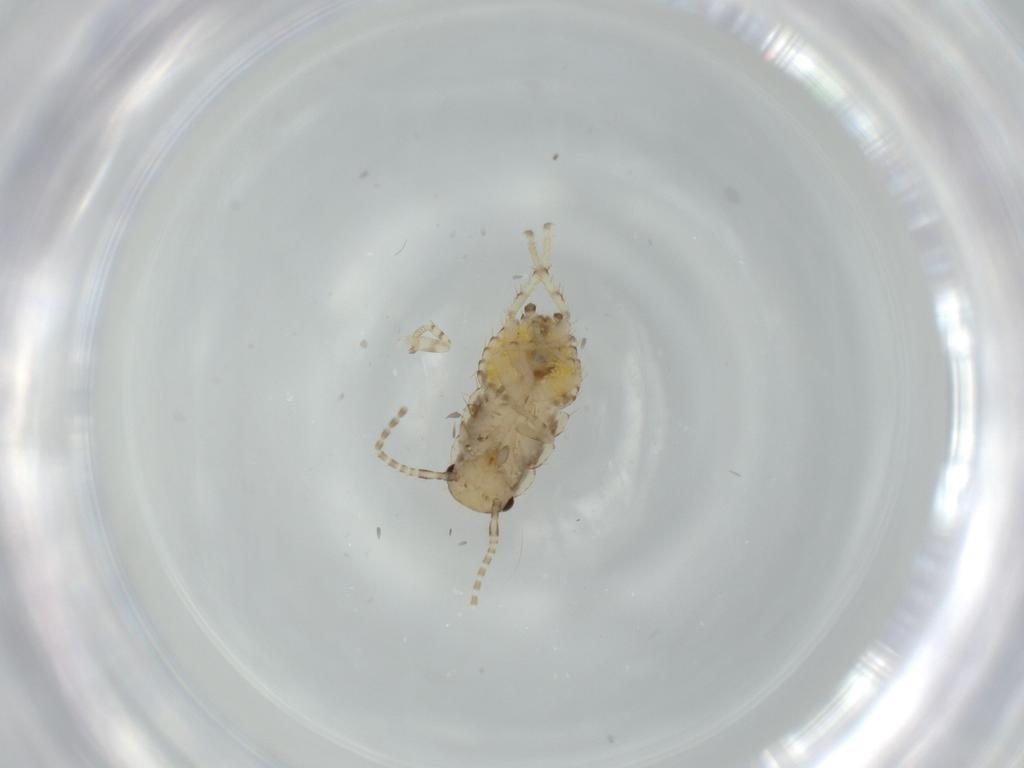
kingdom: Animalia
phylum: Arthropoda
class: Insecta
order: Blattodea
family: Ectobiidae
